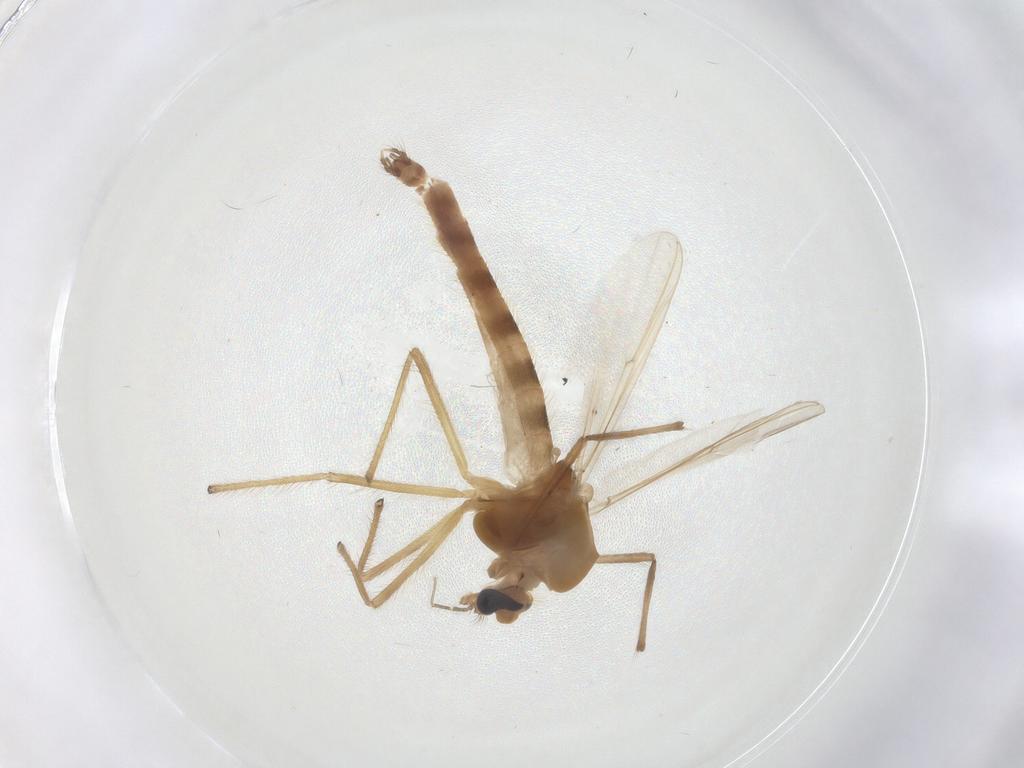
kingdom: Animalia
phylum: Arthropoda
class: Insecta
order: Diptera
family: Chironomidae
